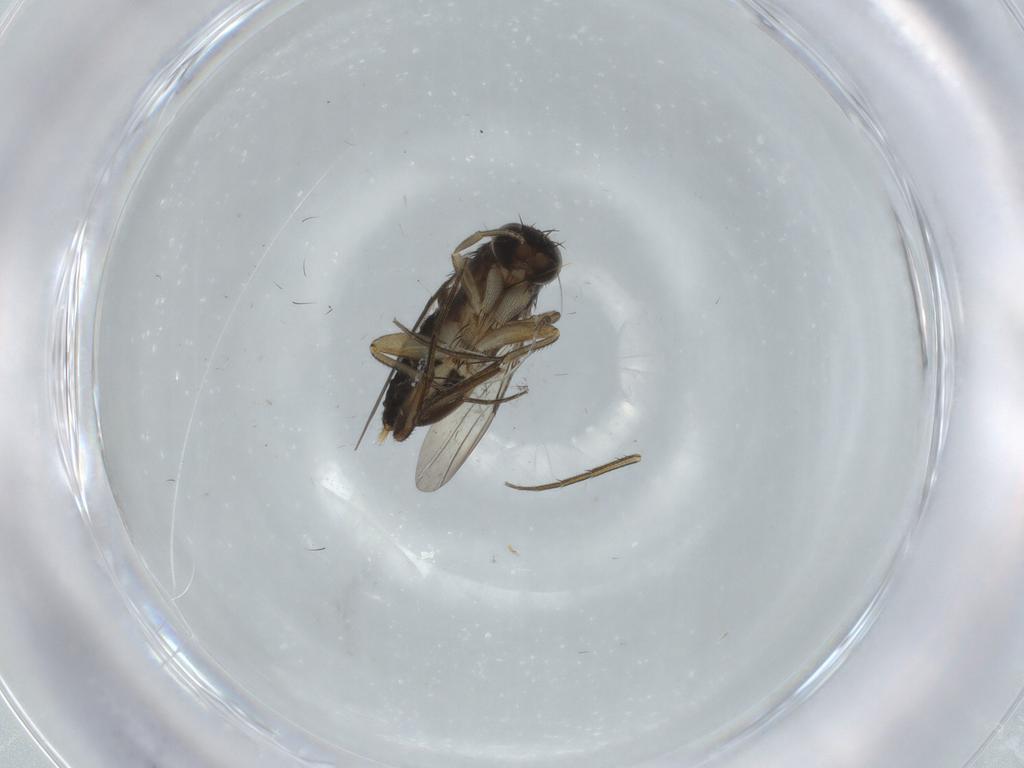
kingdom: Animalia
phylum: Arthropoda
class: Insecta
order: Diptera
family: Phoridae
